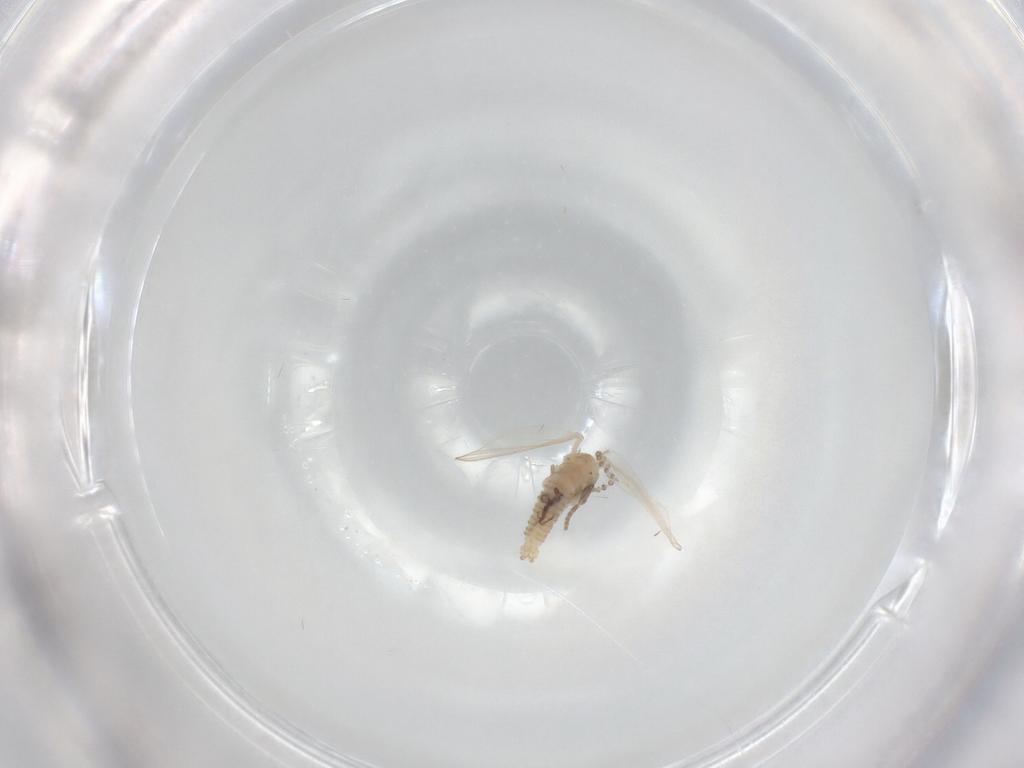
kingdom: Animalia
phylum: Arthropoda
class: Insecta
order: Diptera
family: Psychodidae
